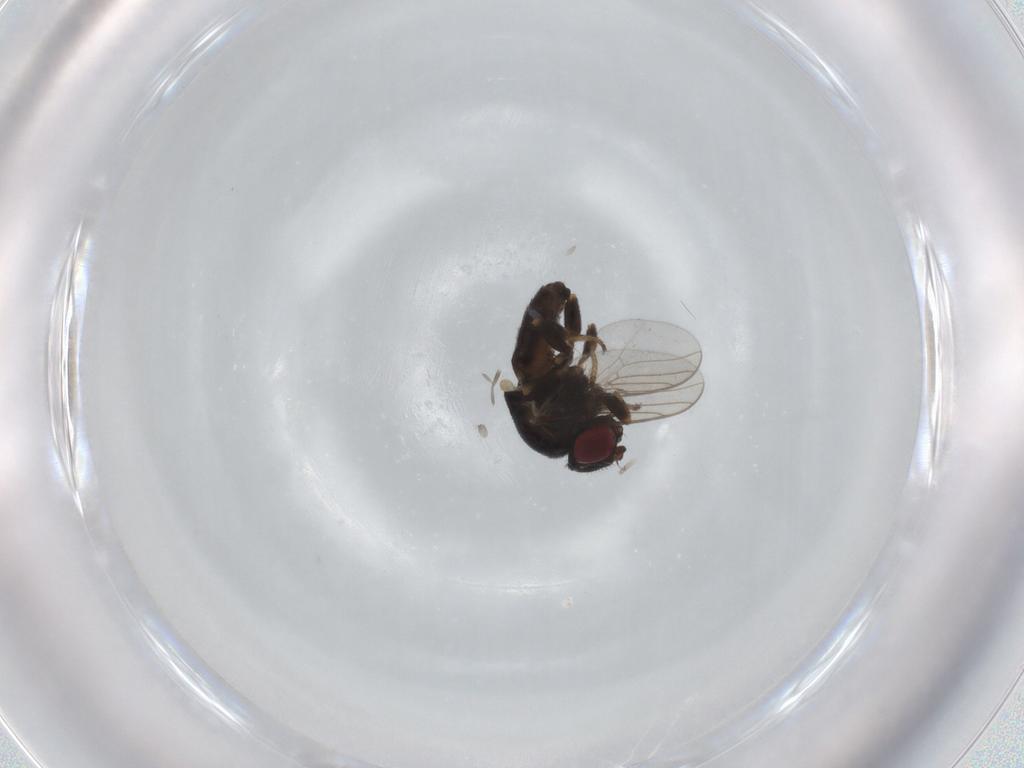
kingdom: Animalia
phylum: Arthropoda
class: Insecta
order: Diptera
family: Chloropidae
